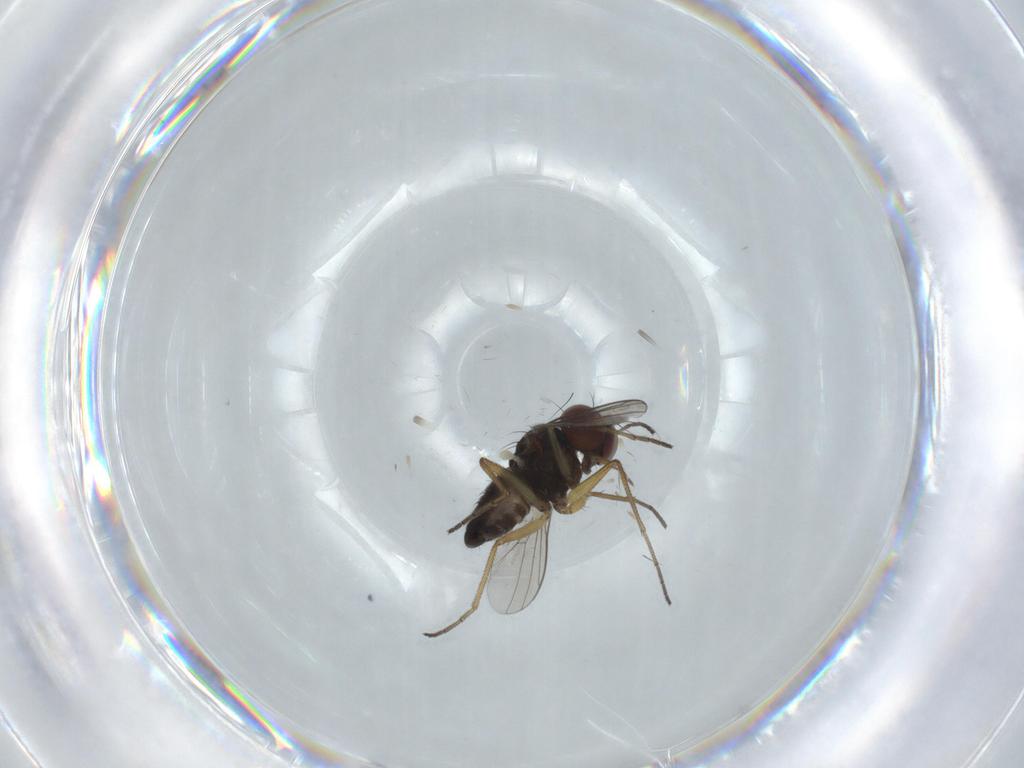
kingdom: Animalia
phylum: Arthropoda
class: Insecta
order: Diptera
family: Dolichopodidae
